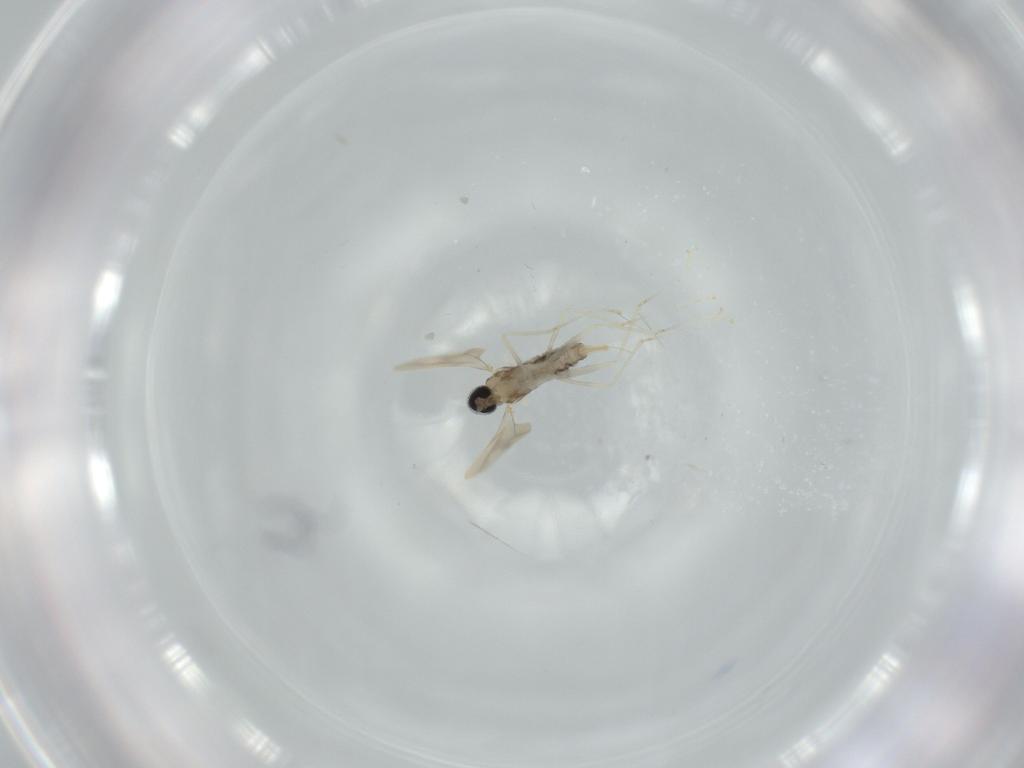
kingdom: Animalia
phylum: Arthropoda
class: Insecta
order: Diptera
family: Cecidomyiidae
